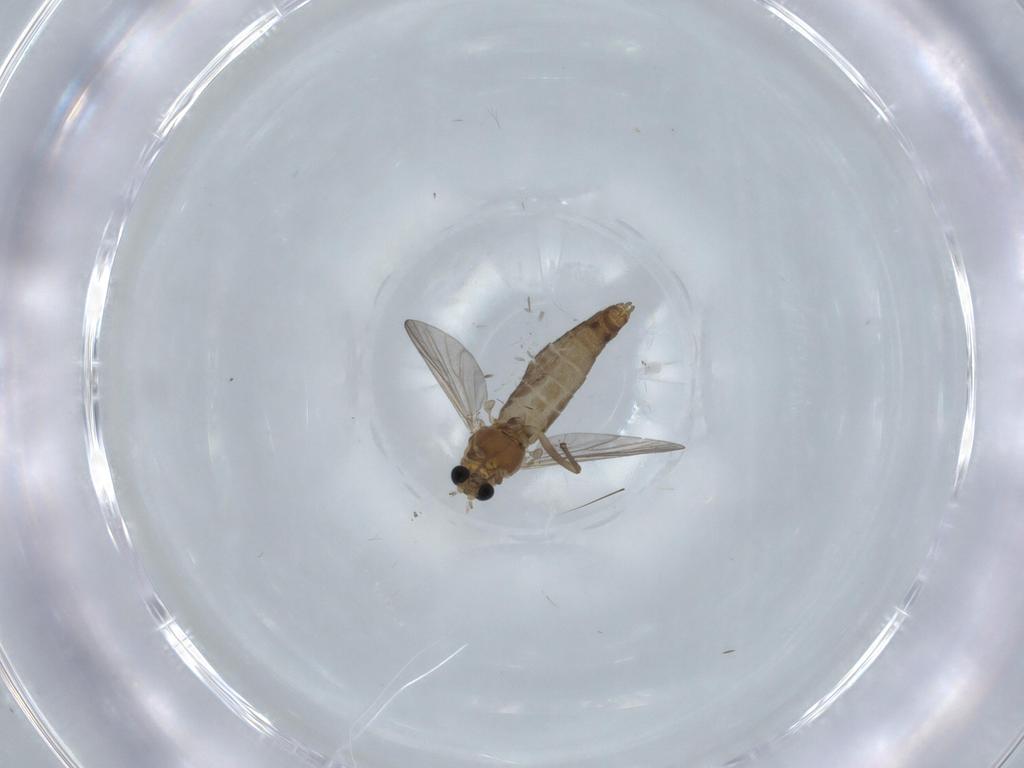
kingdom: Animalia
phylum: Arthropoda
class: Insecta
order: Diptera
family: Chironomidae
